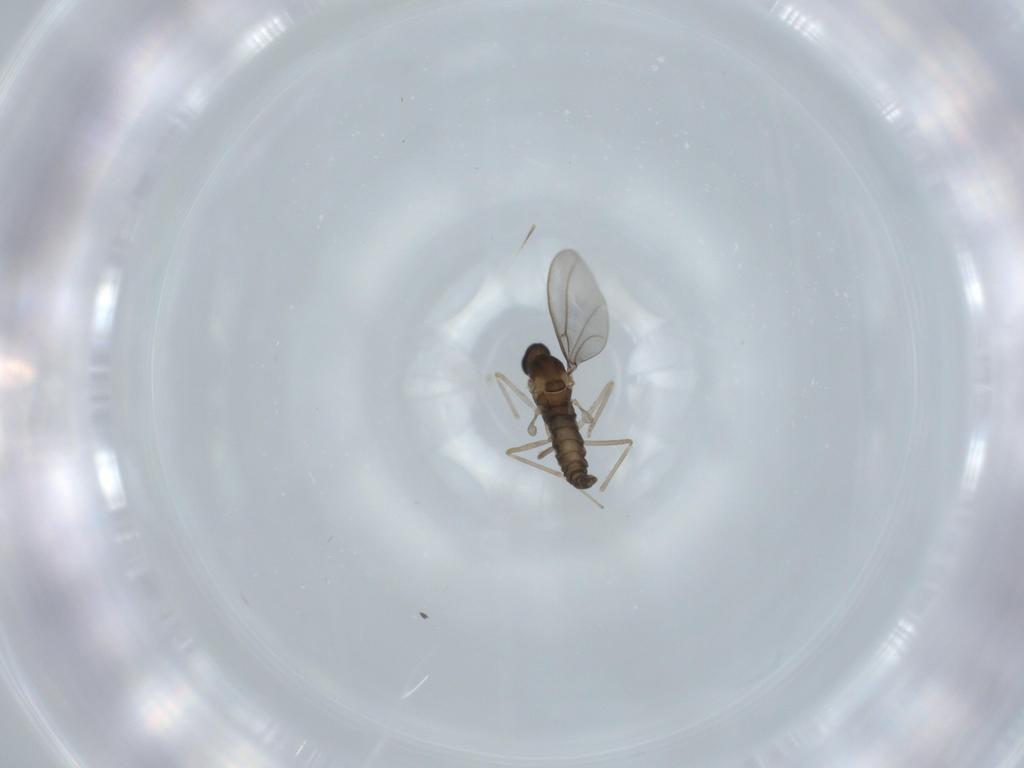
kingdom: Animalia
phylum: Arthropoda
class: Insecta
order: Diptera
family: Cecidomyiidae
